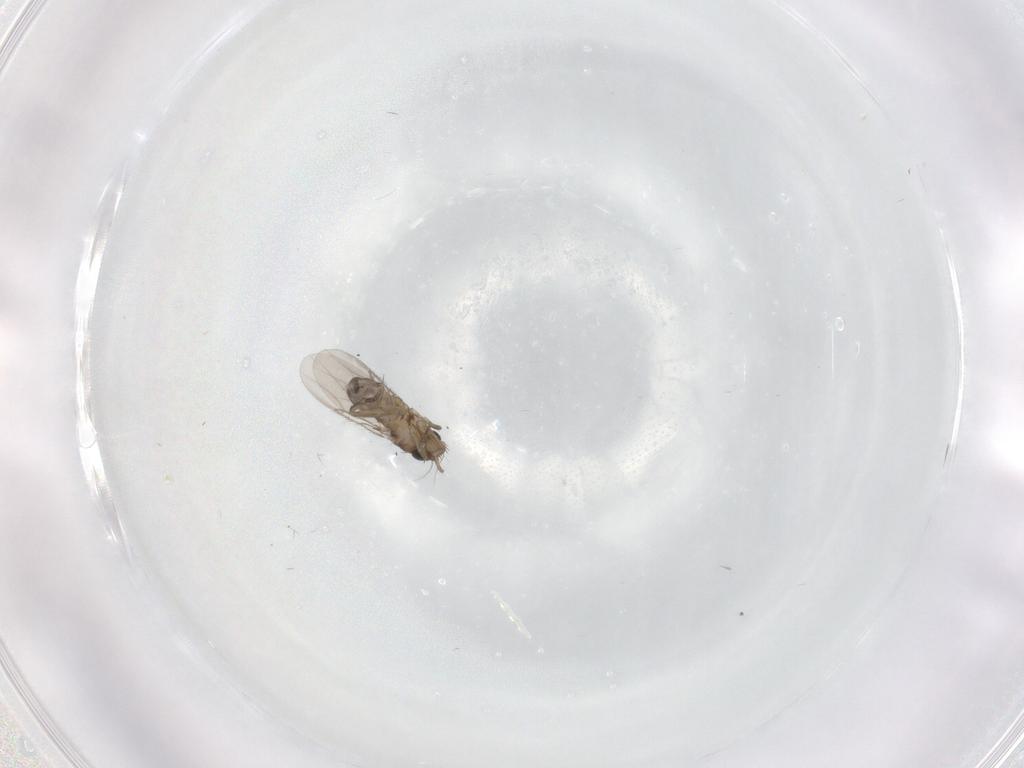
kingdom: Animalia
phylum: Arthropoda
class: Insecta
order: Diptera
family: Phoridae
